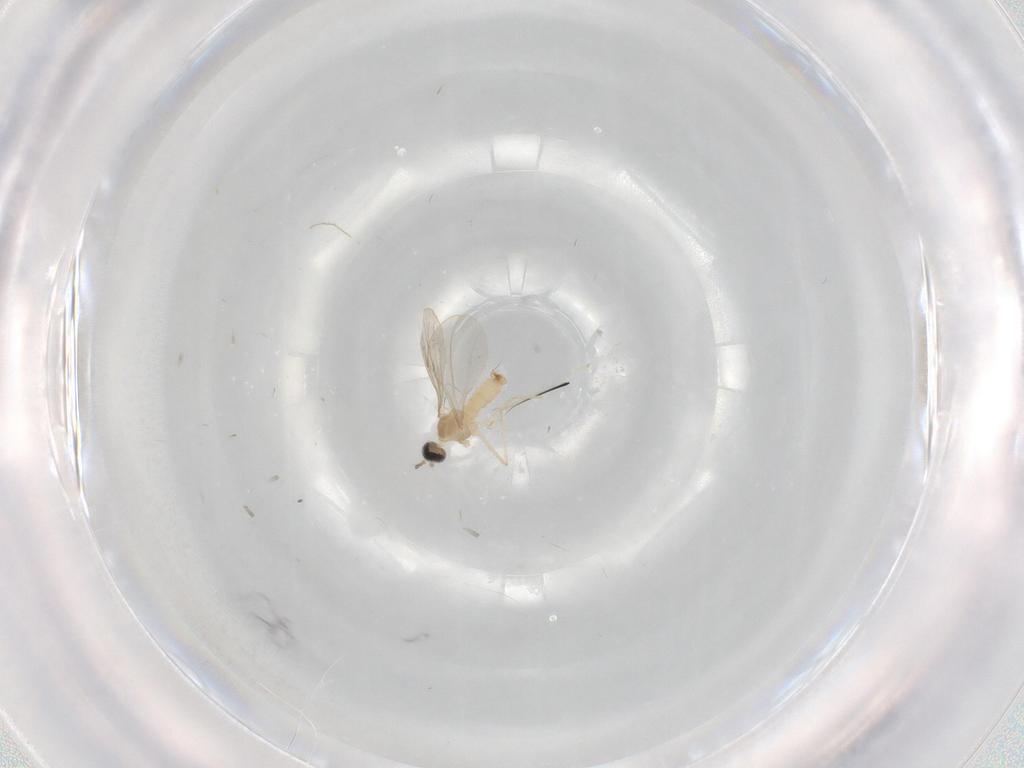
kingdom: Animalia
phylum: Arthropoda
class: Insecta
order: Diptera
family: Cecidomyiidae
